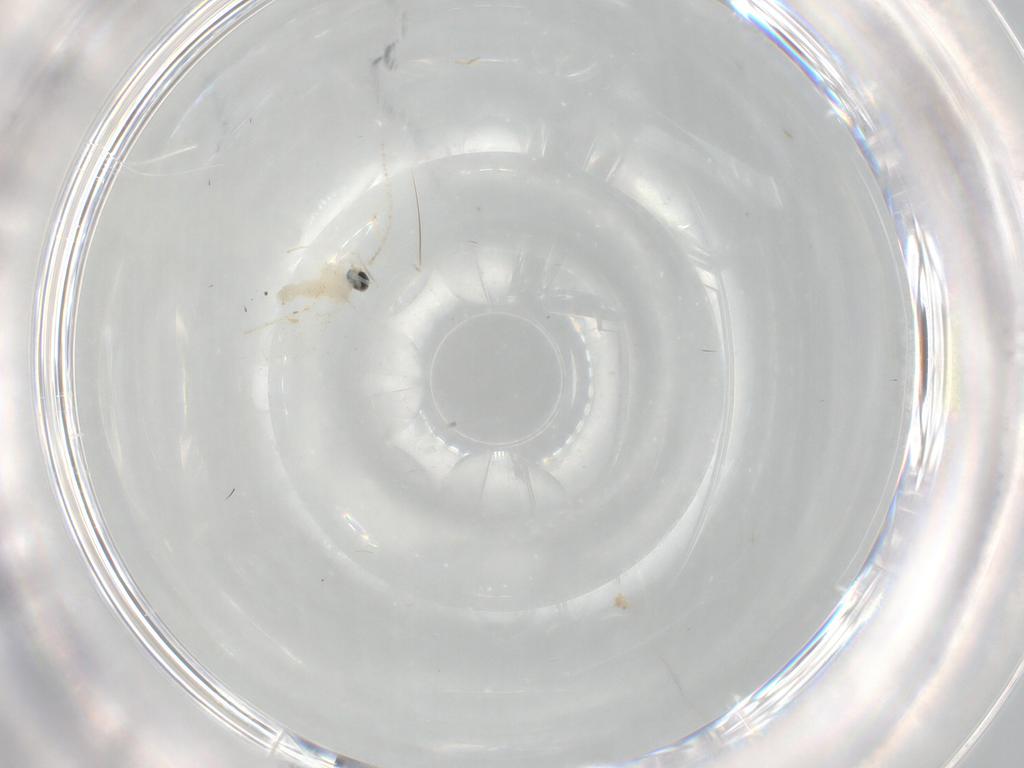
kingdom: Animalia
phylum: Arthropoda
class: Insecta
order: Diptera
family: Cecidomyiidae
